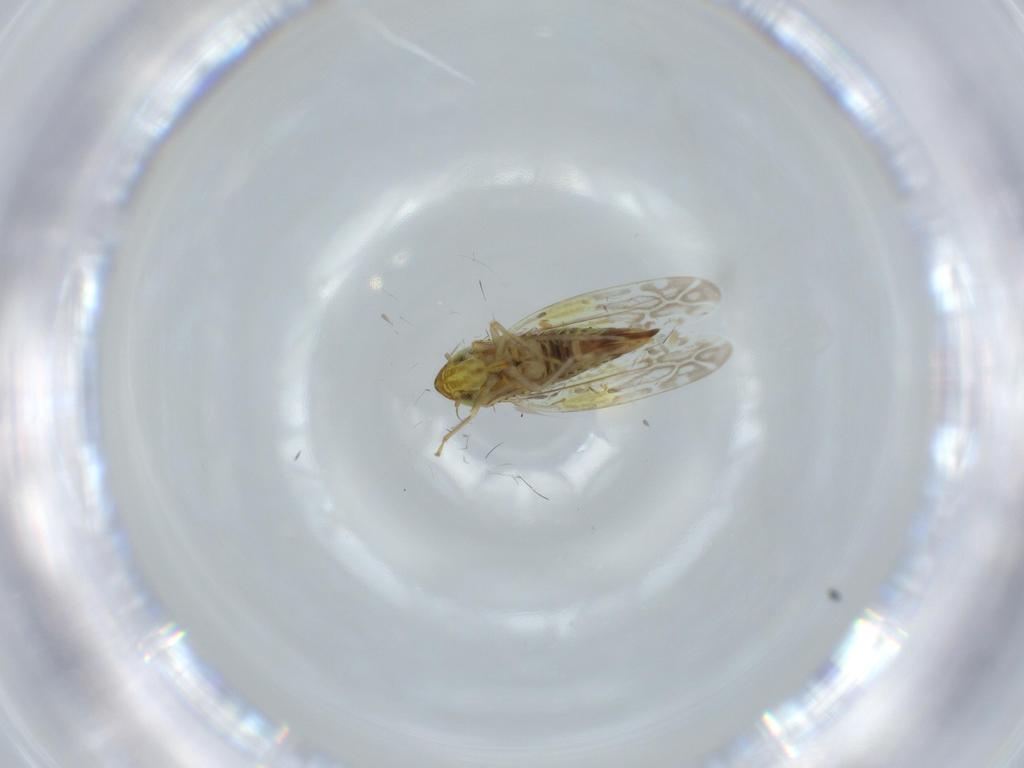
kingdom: Animalia
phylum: Arthropoda
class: Insecta
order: Hemiptera
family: Cicadellidae
